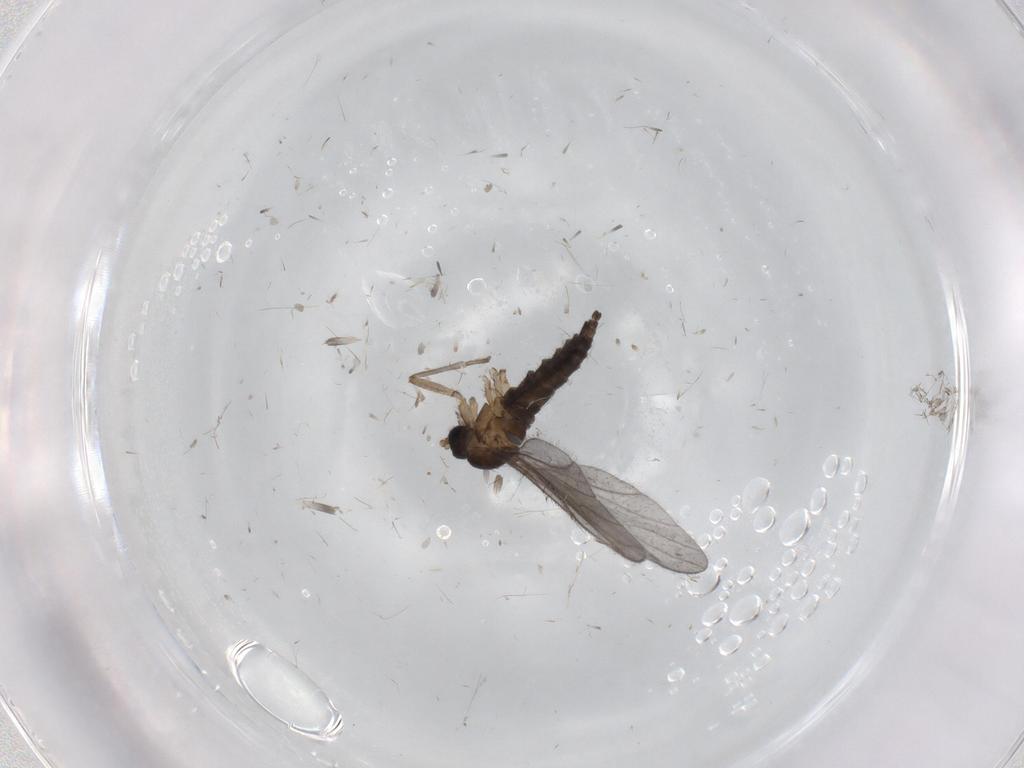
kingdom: Animalia
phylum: Arthropoda
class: Insecta
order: Diptera
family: Sciaridae
